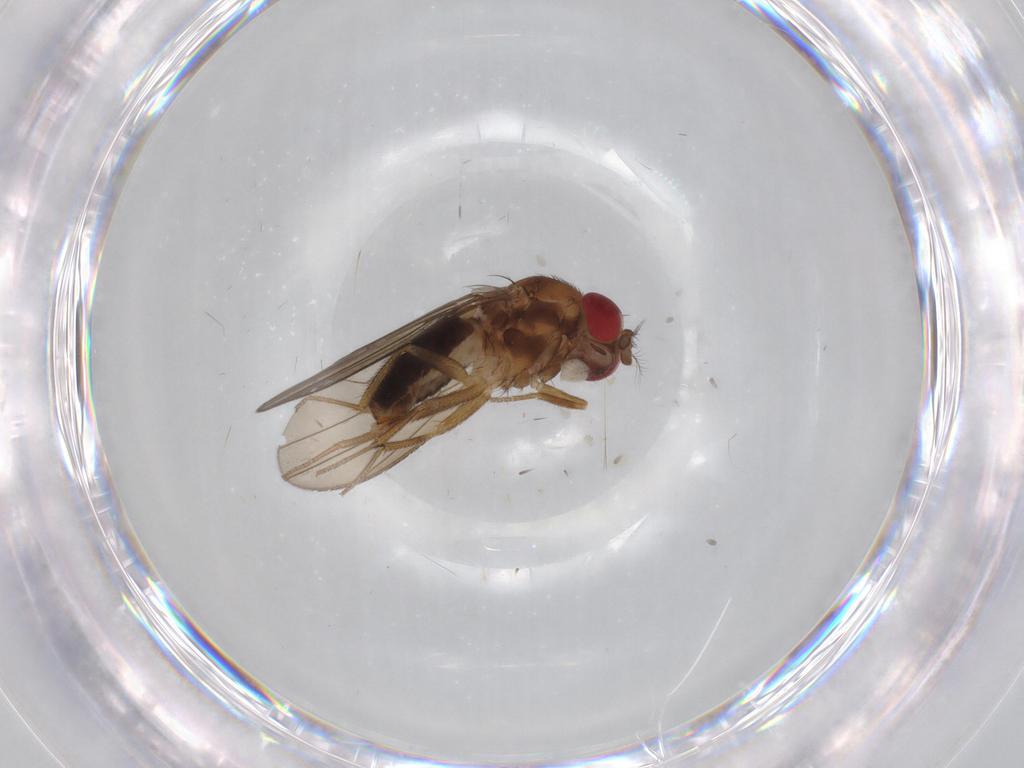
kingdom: Animalia
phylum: Arthropoda
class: Insecta
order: Diptera
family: Drosophilidae
